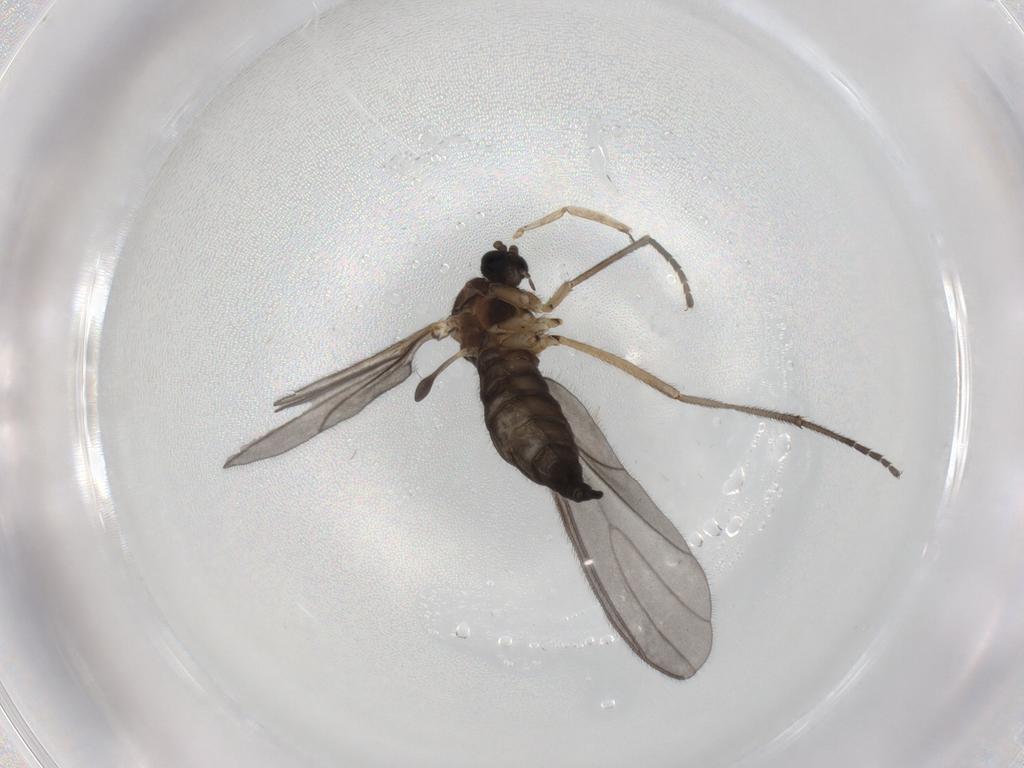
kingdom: Animalia
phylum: Arthropoda
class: Insecta
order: Diptera
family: Sciaridae
